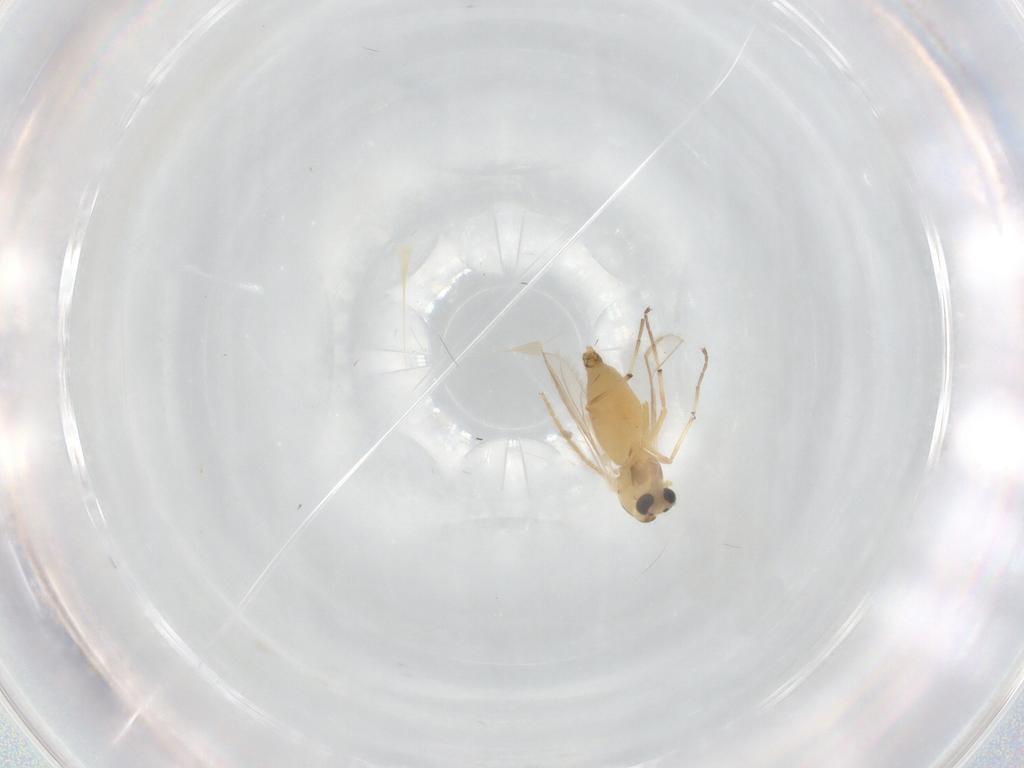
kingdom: Animalia
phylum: Arthropoda
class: Insecta
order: Diptera
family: Chironomidae
